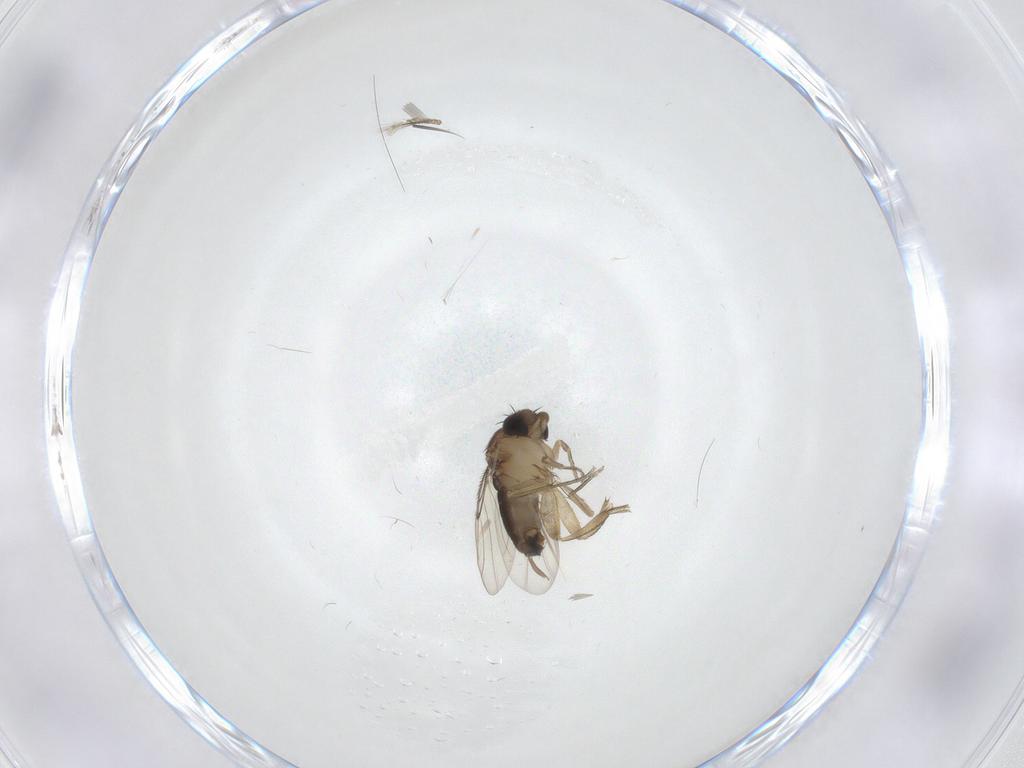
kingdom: Animalia
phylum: Arthropoda
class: Insecta
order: Diptera
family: Cecidomyiidae
